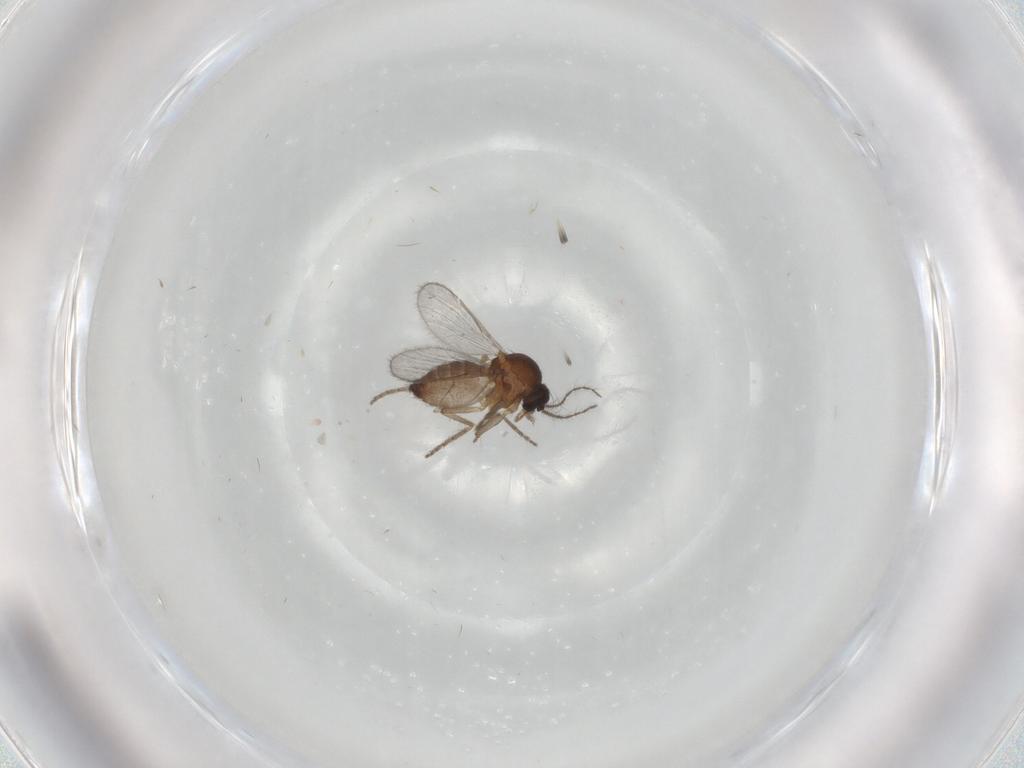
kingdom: Animalia
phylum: Arthropoda
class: Insecta
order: Diptera
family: Ceratopogonidae
